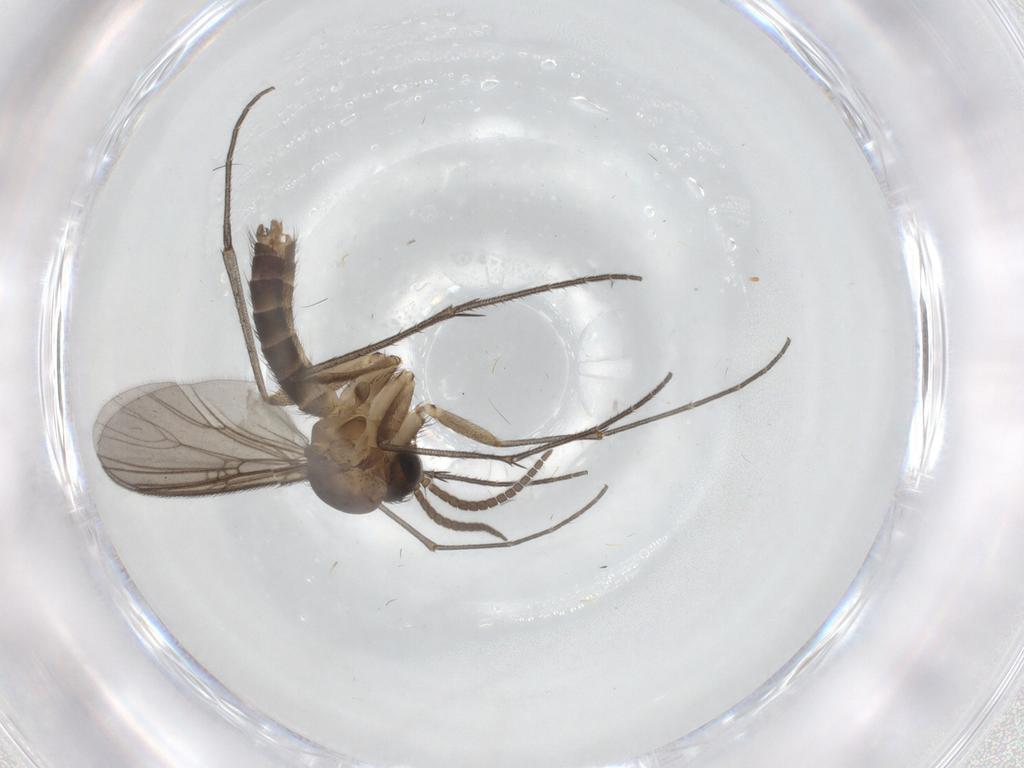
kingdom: Animalia
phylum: Arthropoda
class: Insecta
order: Diptera
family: Mycetophilidae
